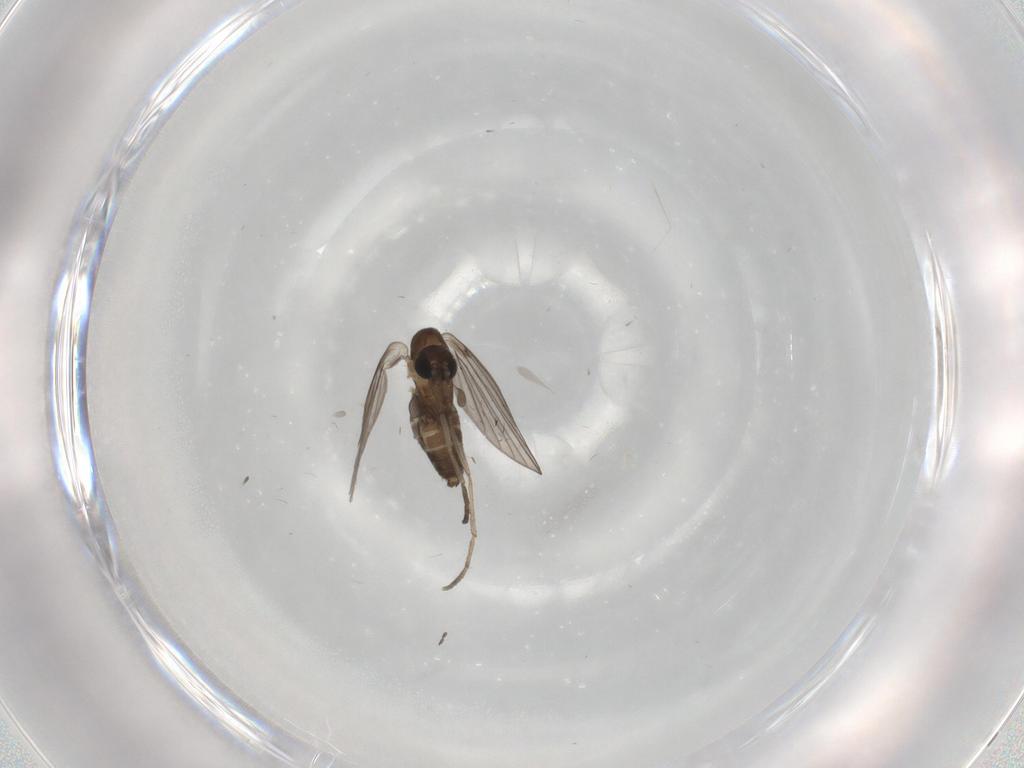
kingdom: Animalia
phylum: Arthropoda
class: Insecta
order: Diptera
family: Psychodidae
